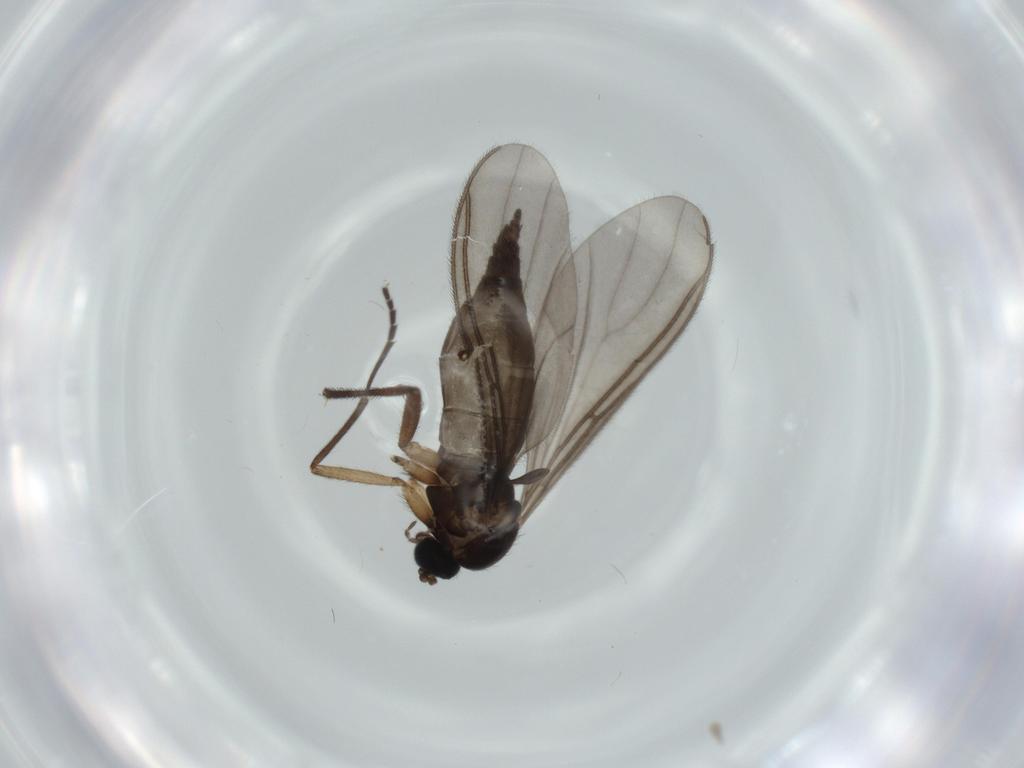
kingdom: Animalia
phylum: Arthropoda
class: Insecta
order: Diptera
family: Sciaridae
